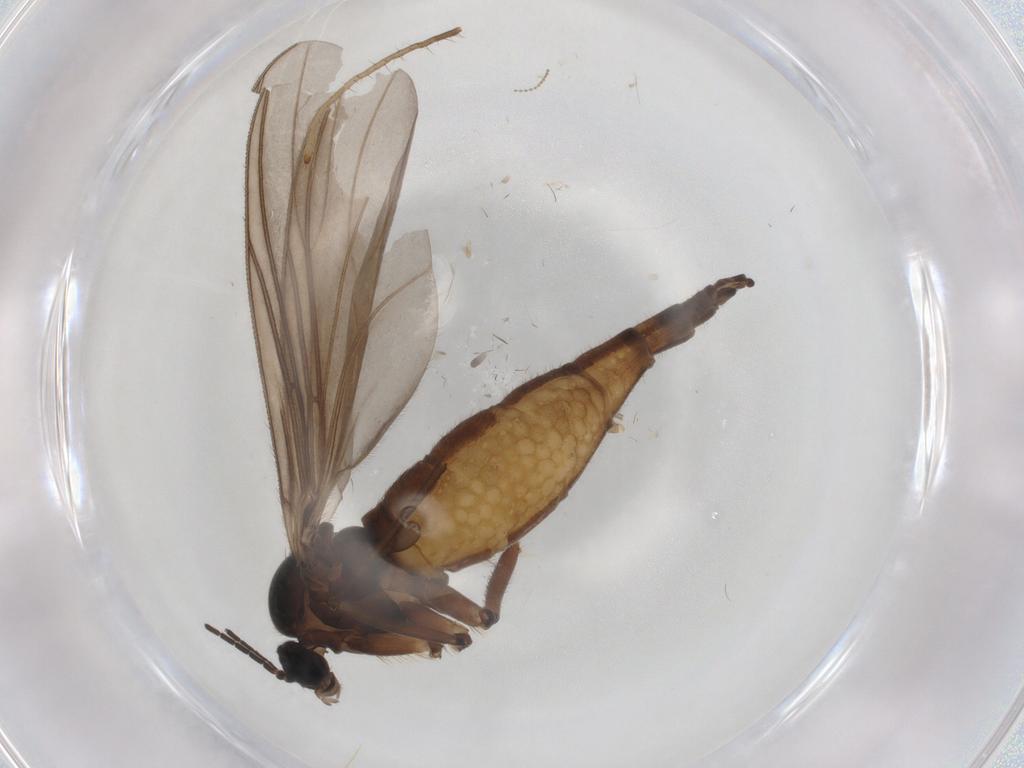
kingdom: Animalia
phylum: Arthropoda
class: Insecta
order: Diptera
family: Sciaridae
